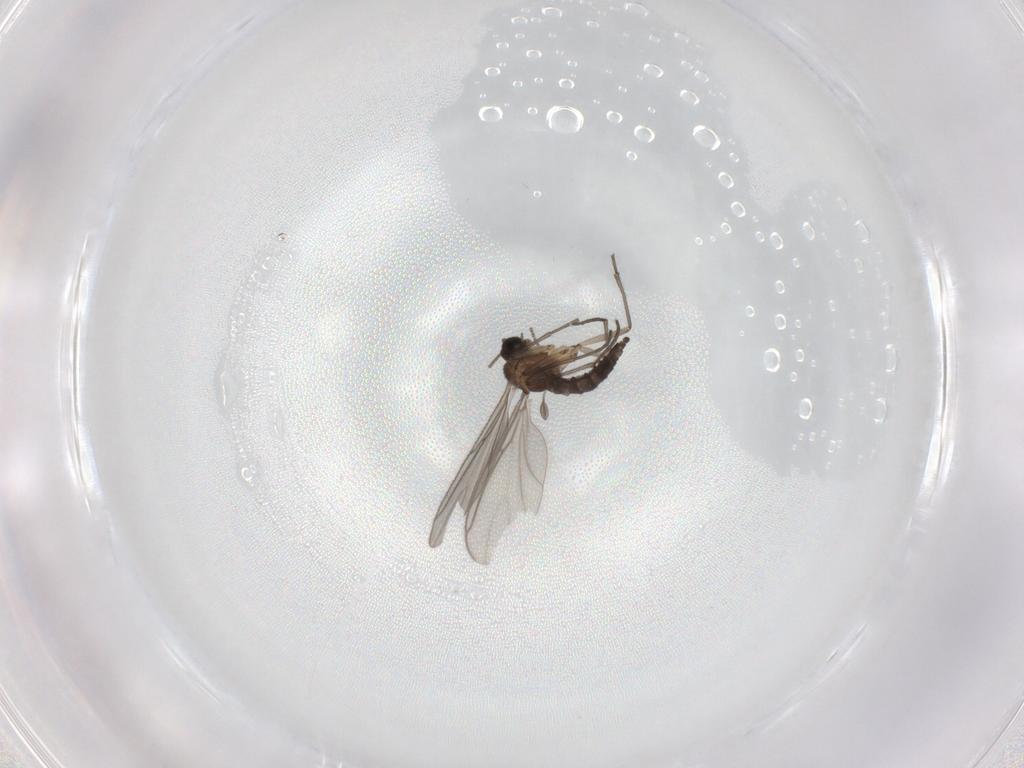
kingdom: Animalia
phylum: Arthropoda
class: Insecta
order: Diptera
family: Sciaridae
